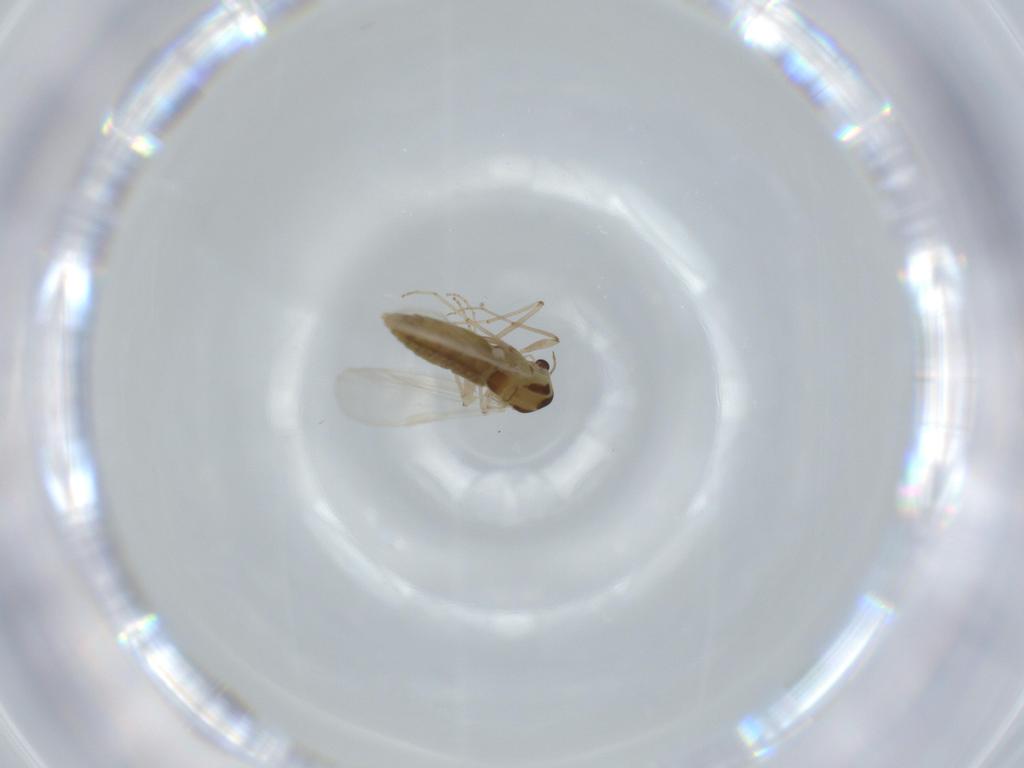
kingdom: Animalia
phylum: Arthropoda
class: Insecta
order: Diptera
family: Chironomidae
